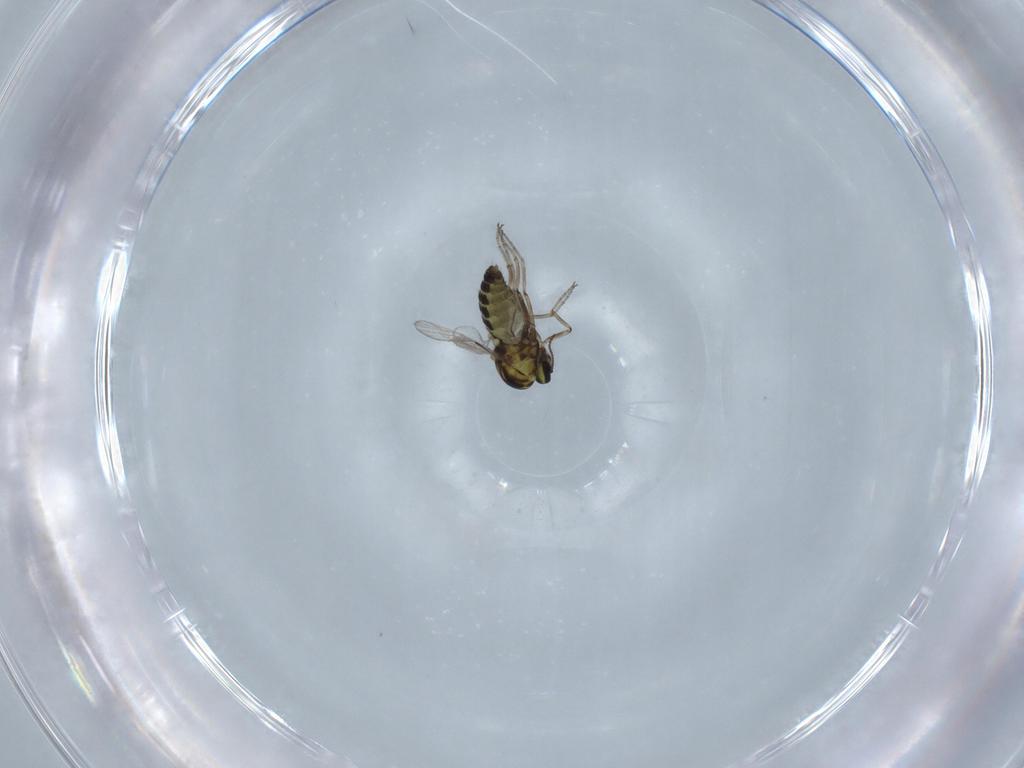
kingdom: Animalia
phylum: Arthropoda
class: Insecta
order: Diptera
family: Ceratopogonidae
